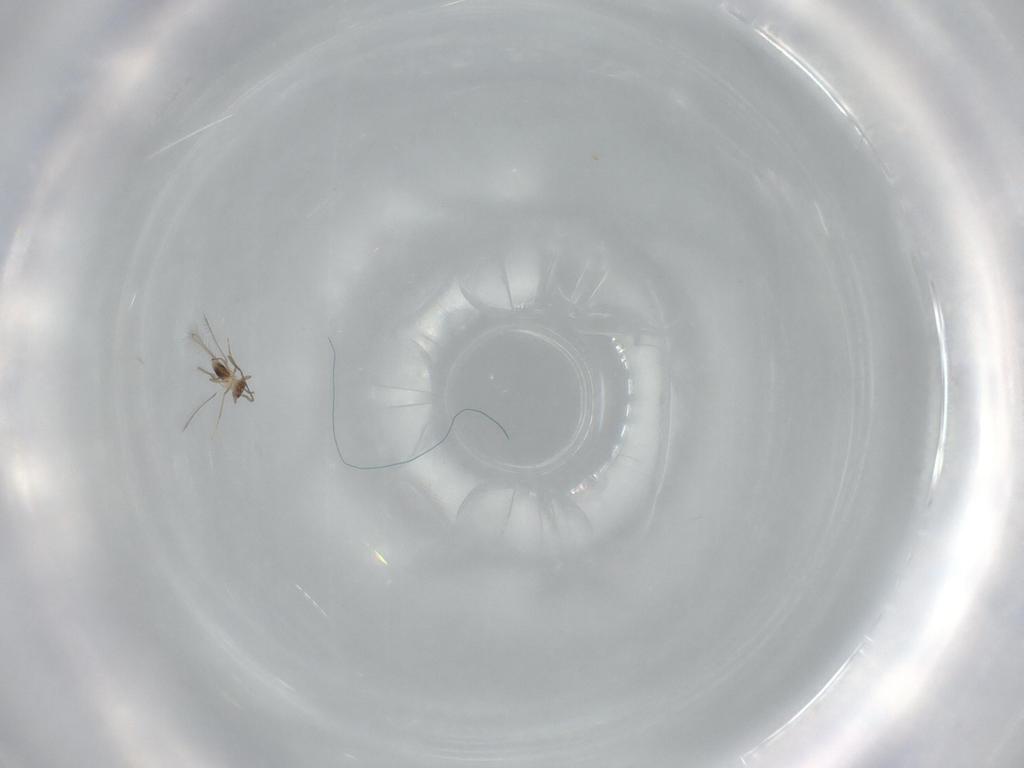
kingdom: Animalia
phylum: Arthropoda
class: Insecta
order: Hymenoptera
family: Mymaridae
